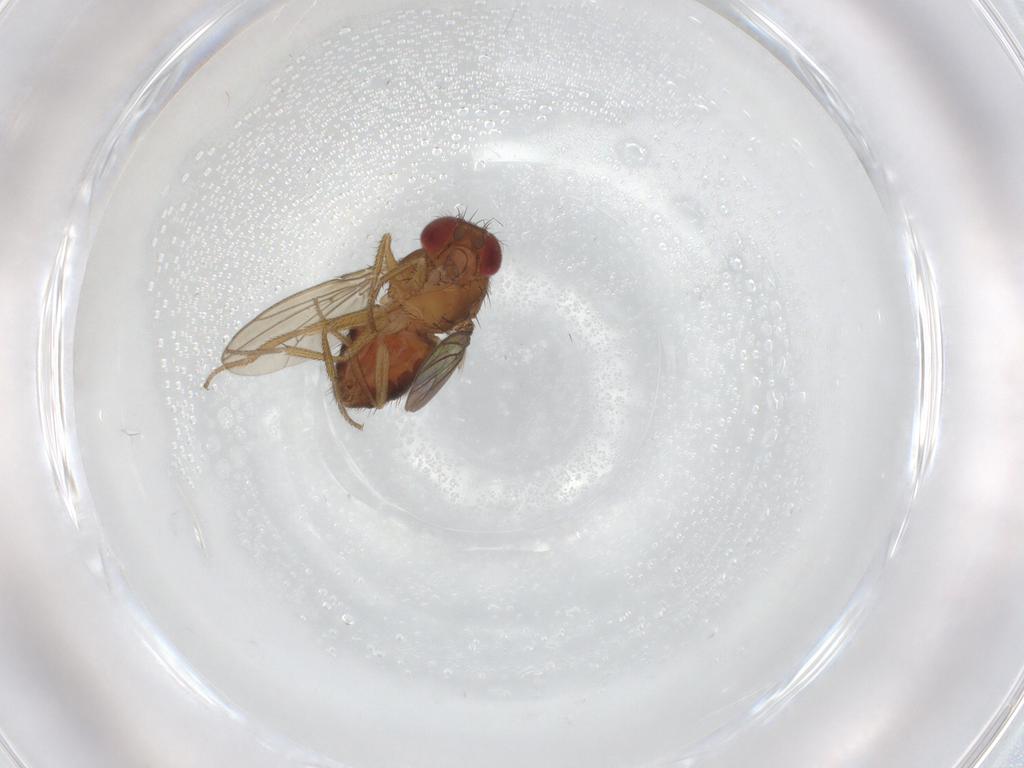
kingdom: Animalia
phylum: Arthropoda
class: Insecta
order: Diptera
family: Drosophilidae
